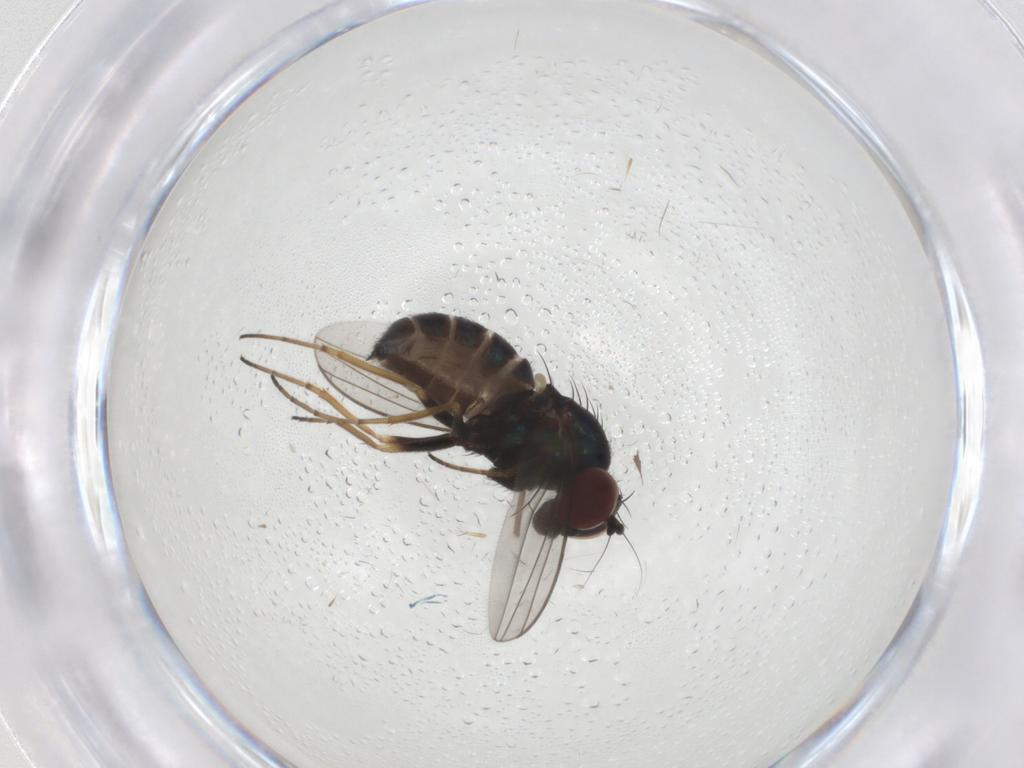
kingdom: Animalia
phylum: Arthropoda
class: Insecta
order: Diptera
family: Dolichopodidae
